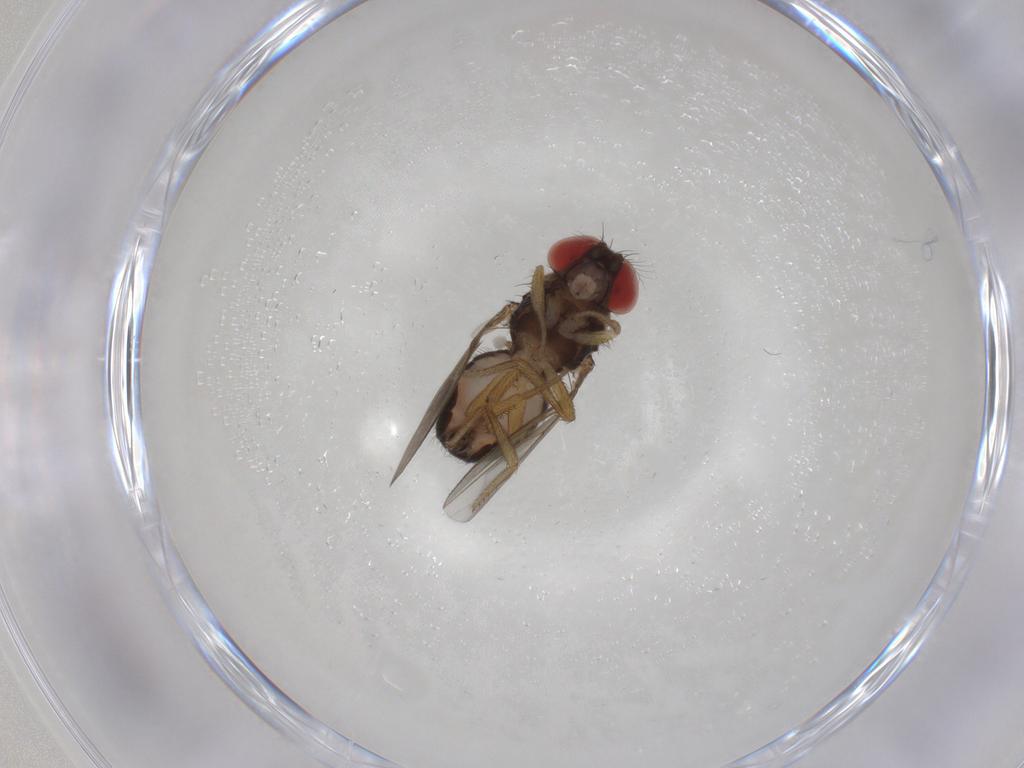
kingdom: Animalia
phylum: Arthropoda
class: Insecta
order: Diptera
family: Drosophilidae
